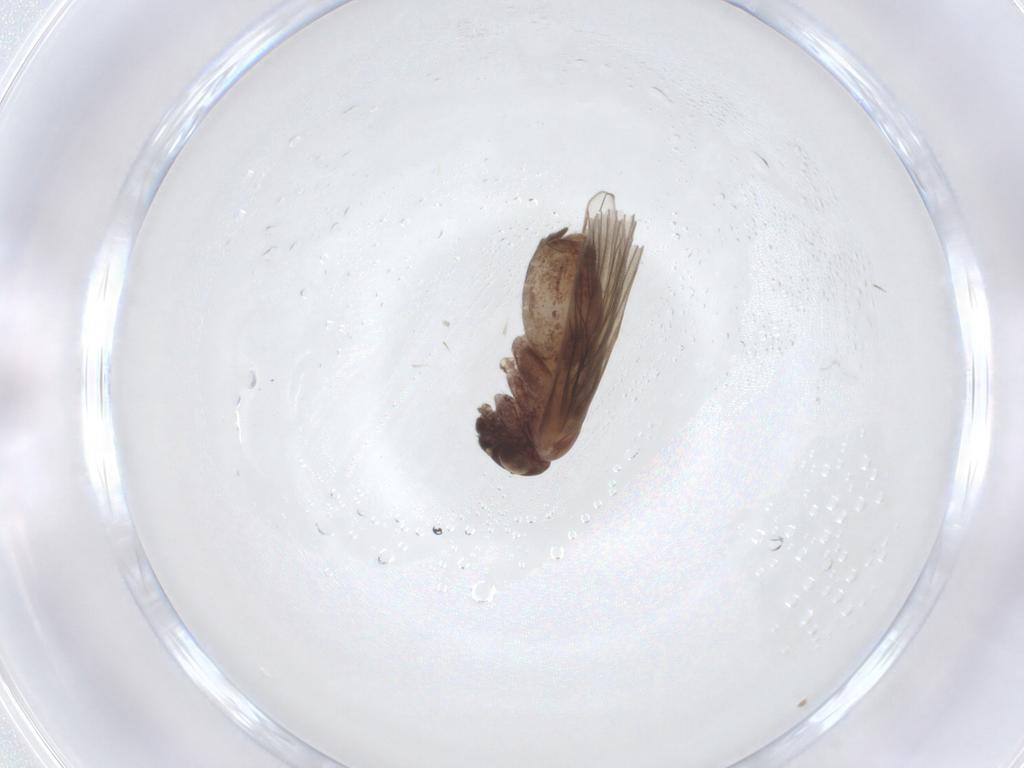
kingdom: Animalia
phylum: Arthropoda
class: Insecta
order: Psocodea
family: Lepidopsocidae
